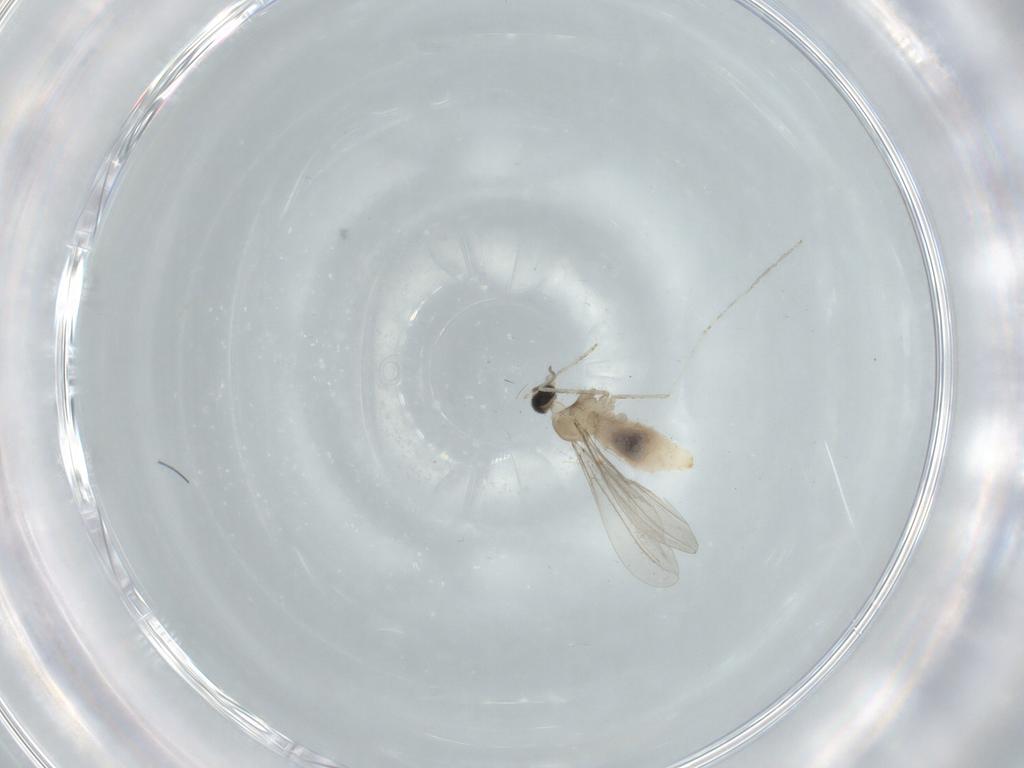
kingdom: Animalia
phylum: Arthropoda
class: Insecta
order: Diptera
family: Cecidomyiidae
